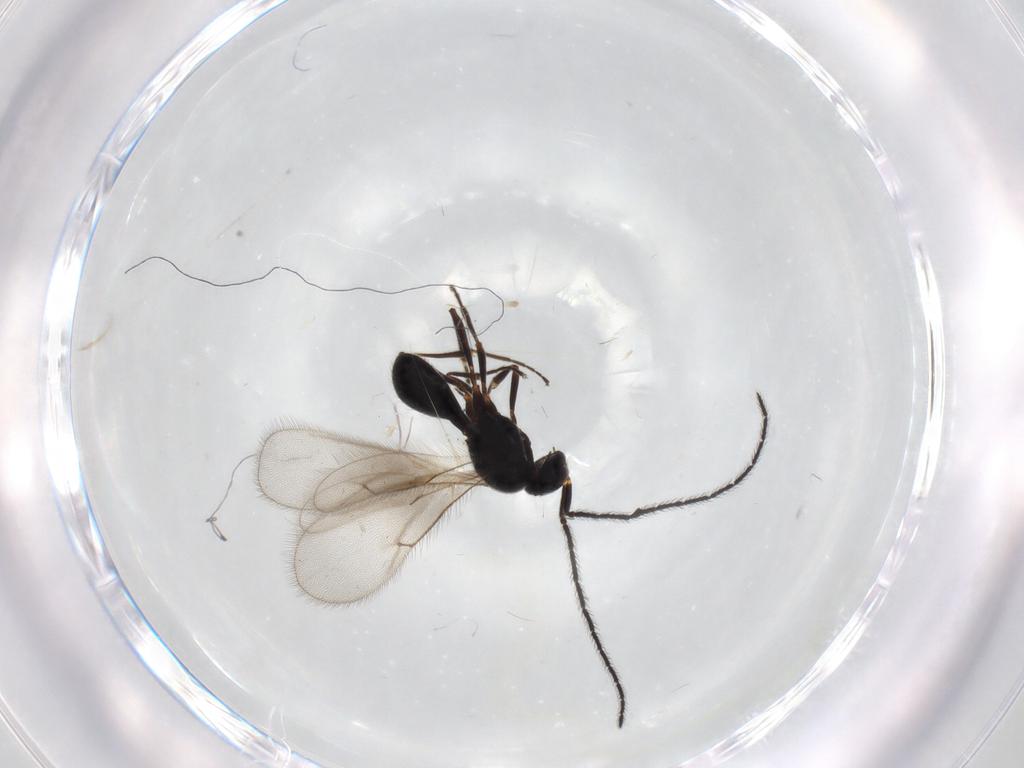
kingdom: Animalia
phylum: Arthropoda
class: Insecta
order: Hymenoptera
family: Scelionidae
